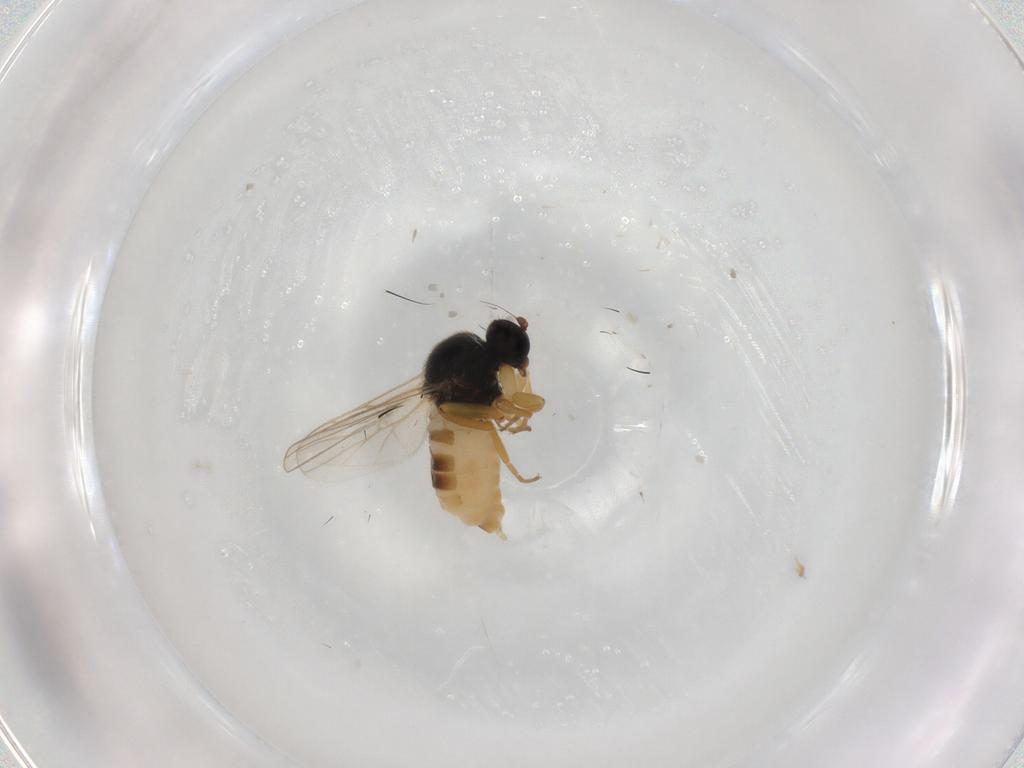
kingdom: Animalia
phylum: Arthropoda
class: Insecta
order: Diptera
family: Hybotidae
